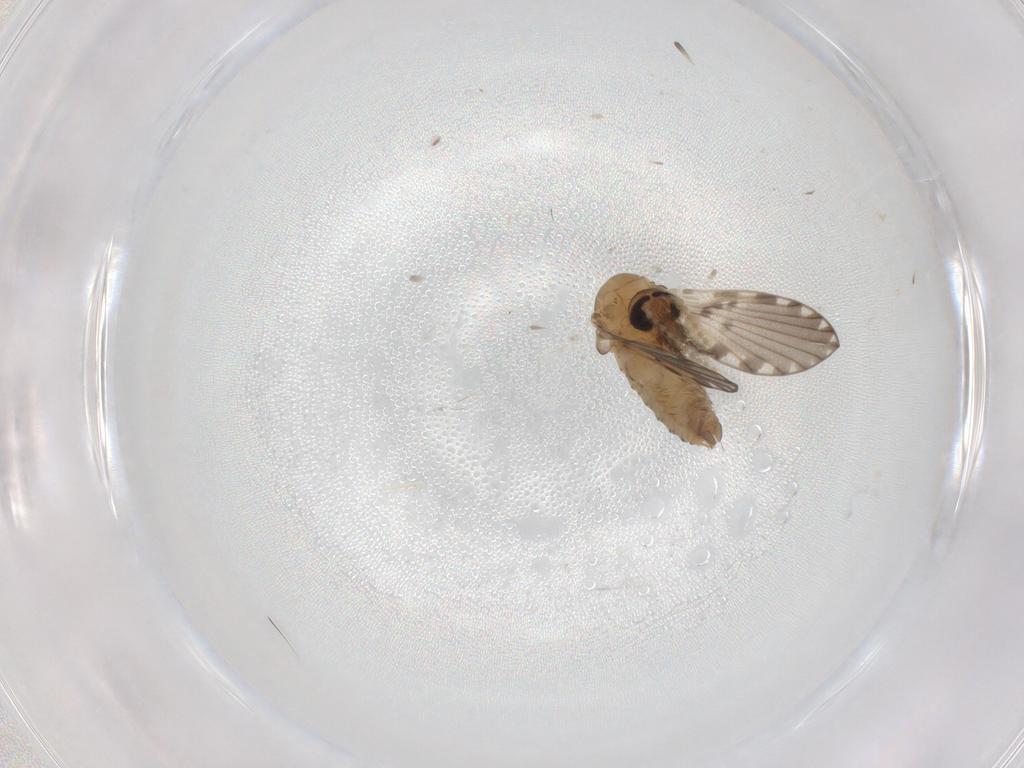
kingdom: Animalia
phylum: Arthropoda
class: Insecta
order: Diptera
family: Psychodidae
